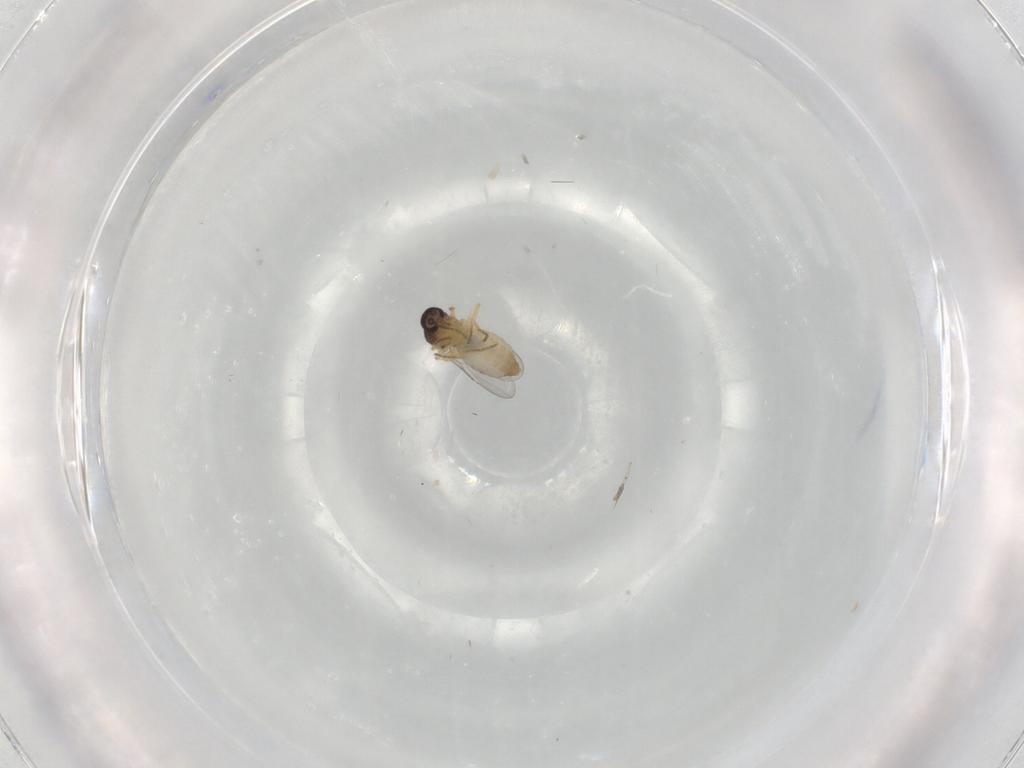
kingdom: Animalia
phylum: Arthropoda
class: Insecta
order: Diptera
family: Ceratopogonidae
